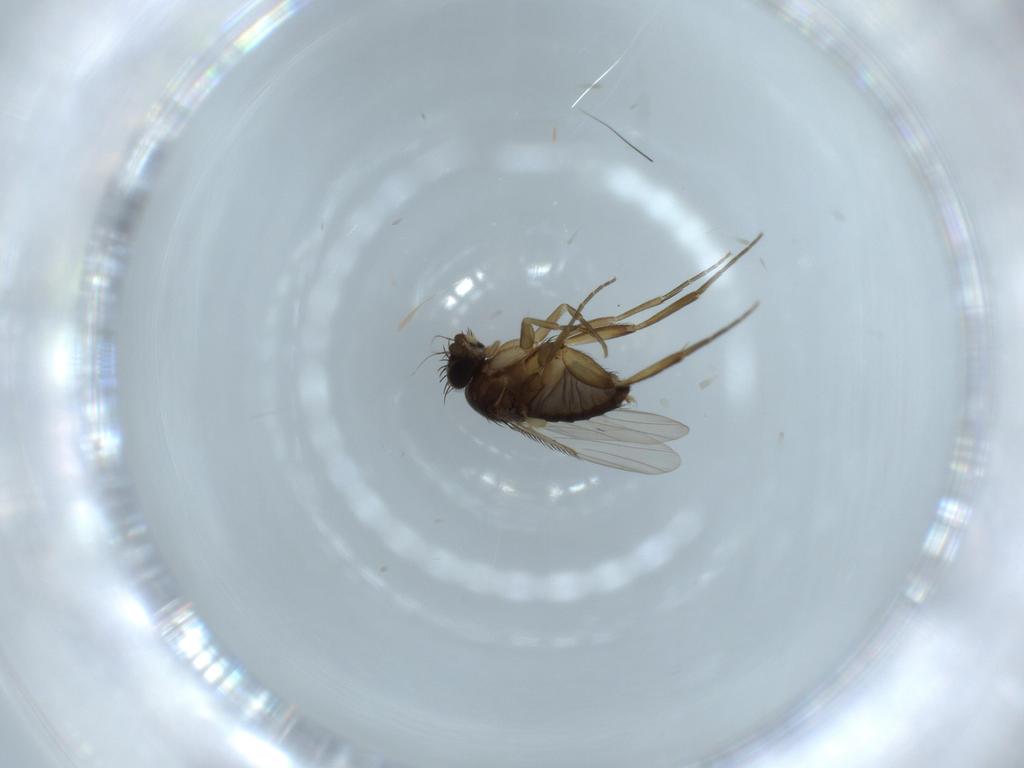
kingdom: Animalia
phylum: Arthropoda
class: Insecta
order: Diptera
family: Phoridae
